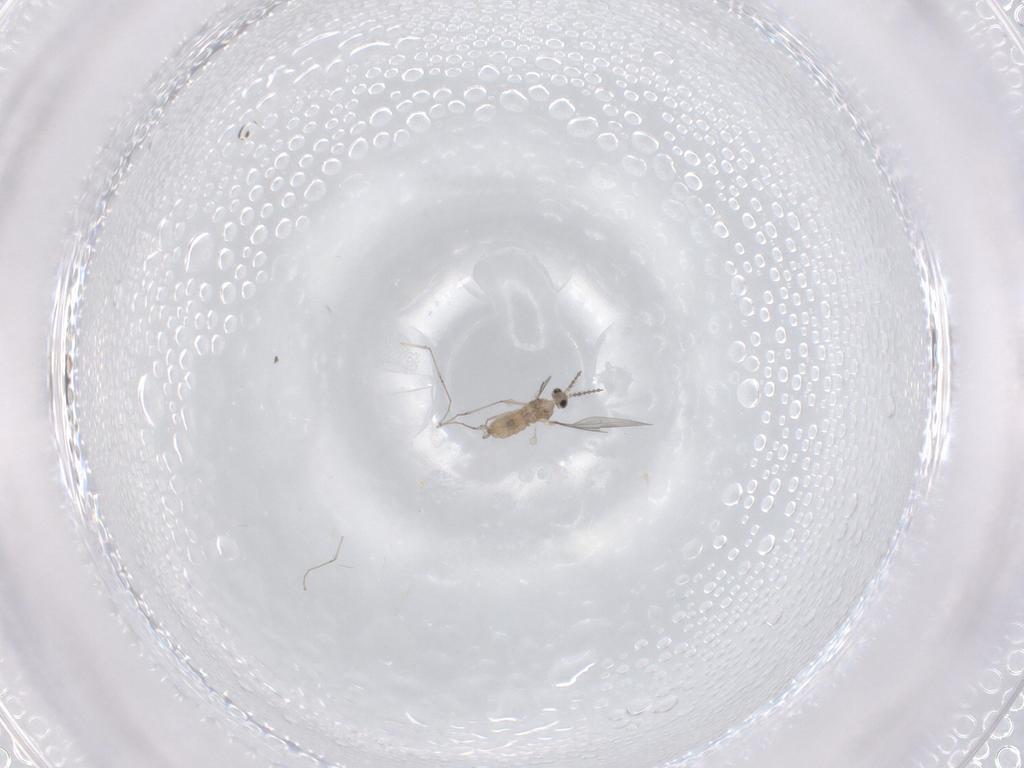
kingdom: Animalia
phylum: Arthropoda
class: Insecta
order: Diptera
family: Cecidomyiidae
